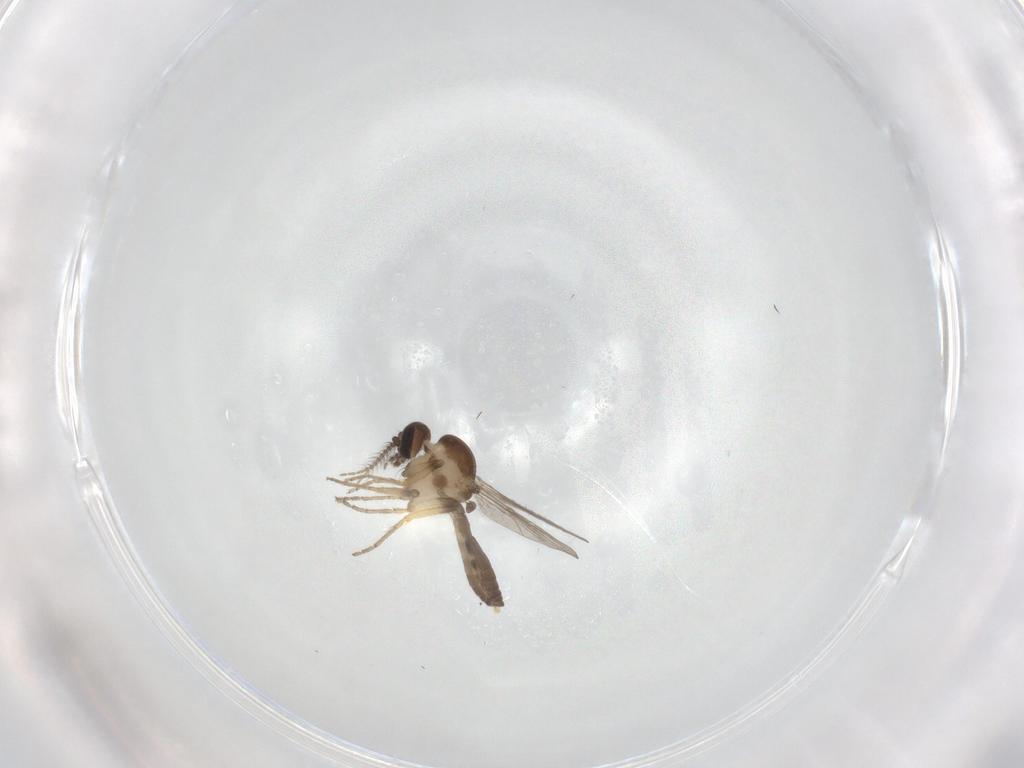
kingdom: Animalia
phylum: Arthropoda
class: Insecta
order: Diptera
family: Ceratopogonidae
